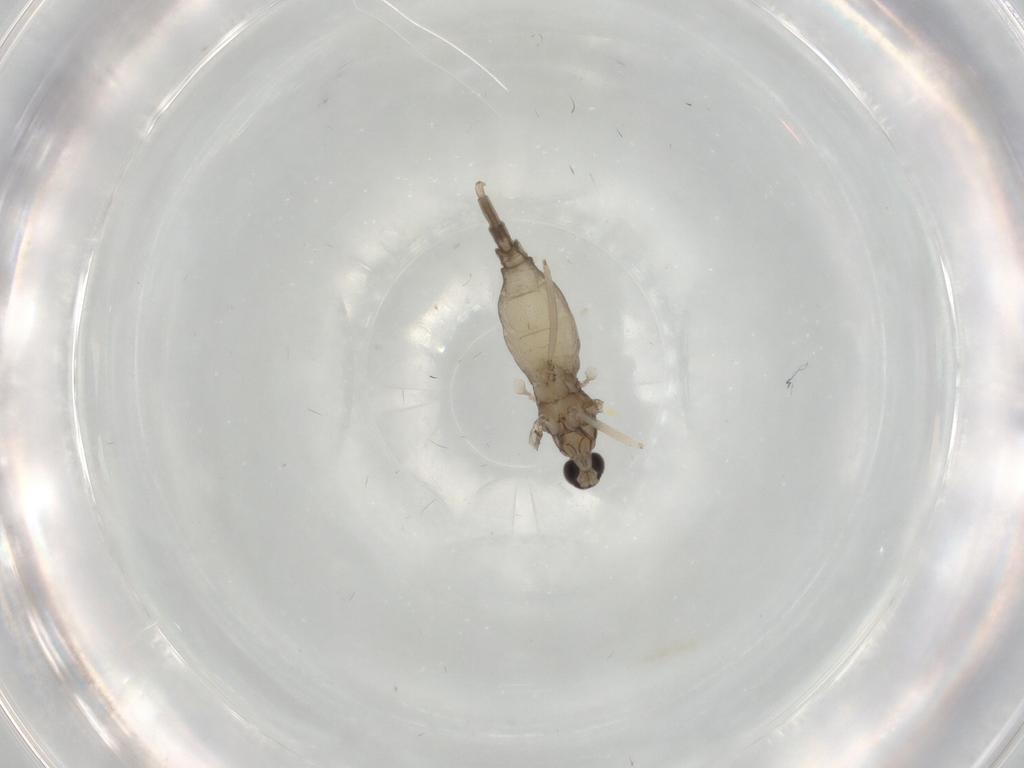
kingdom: Animalia
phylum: Arthropoda
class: Insecta
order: Diptera
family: Cecidomyiidae
